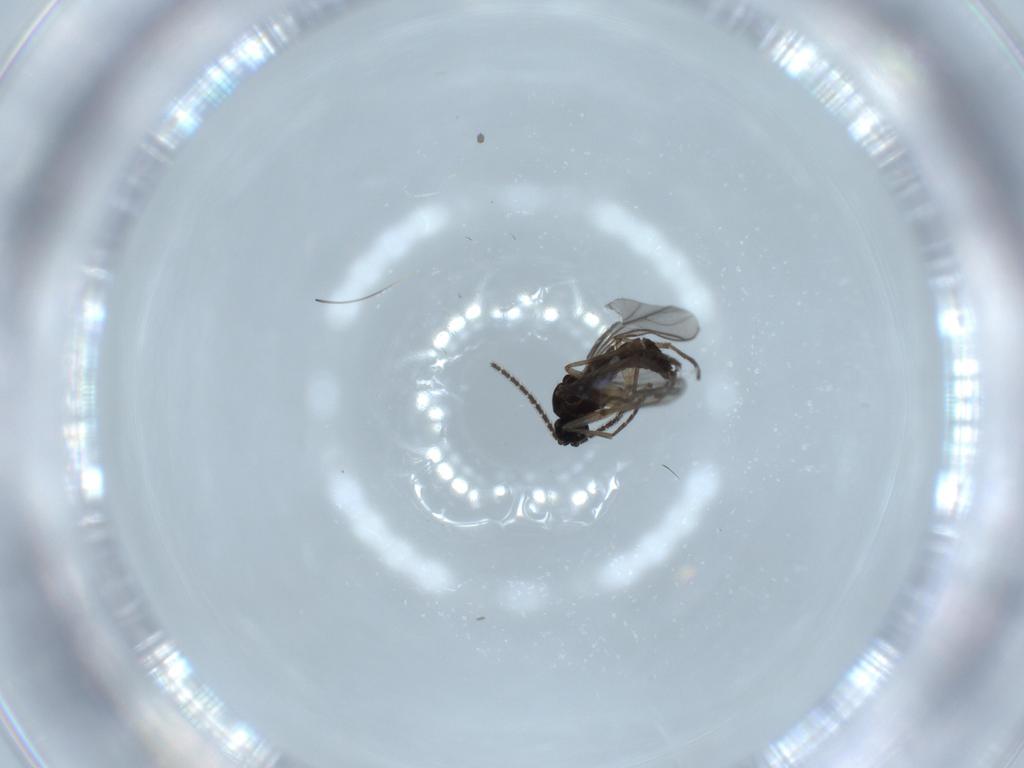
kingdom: Animalia
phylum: Arthropoda
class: Insecta
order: Diptera
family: Cecidomyiidae
